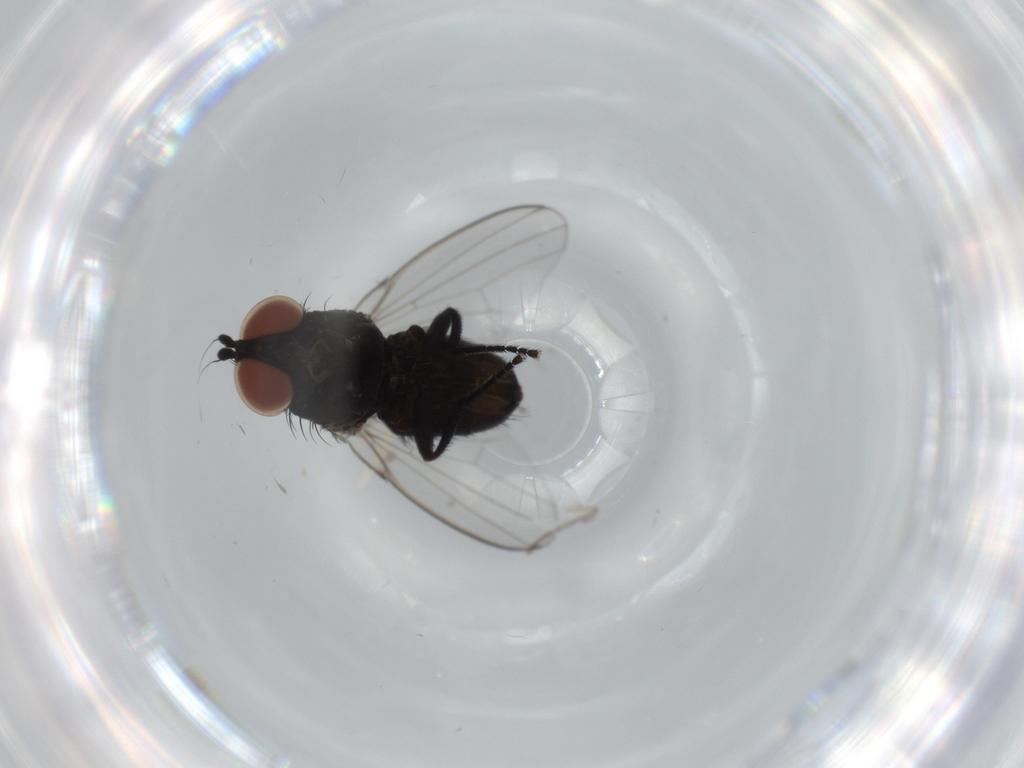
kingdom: Animalia
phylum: Arthropoda
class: Insecta
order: Diptera
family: Milichiidae
